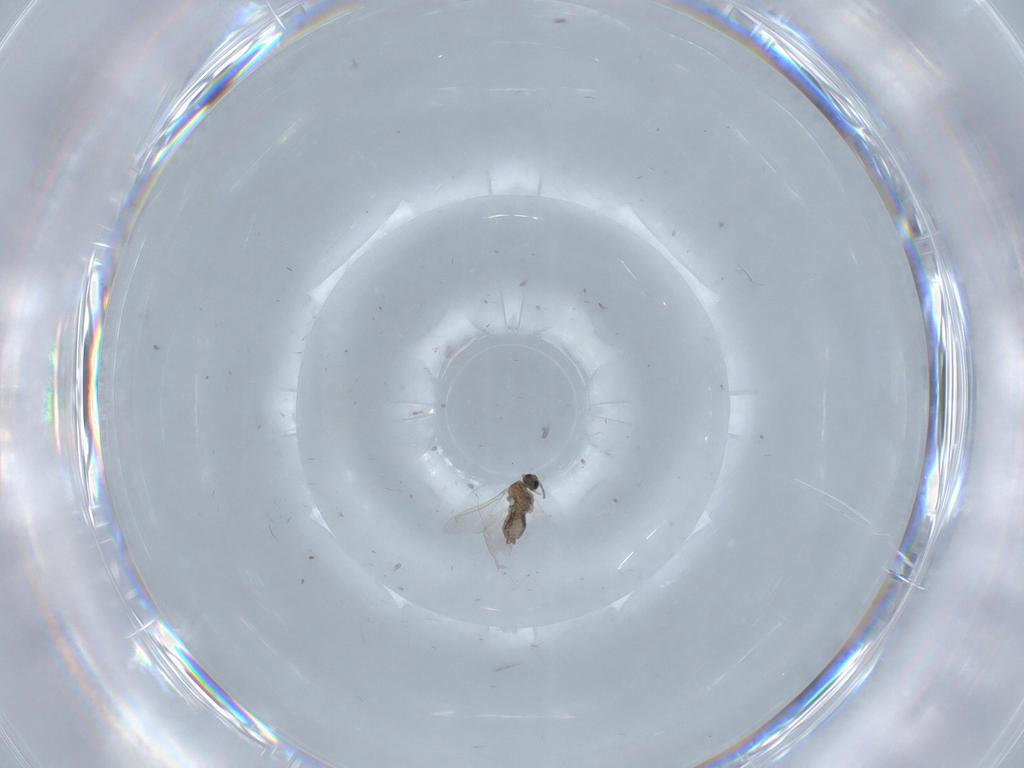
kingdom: Animalia
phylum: Arthropoda
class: Insecta
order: Diptera
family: Cecidomyiidae
